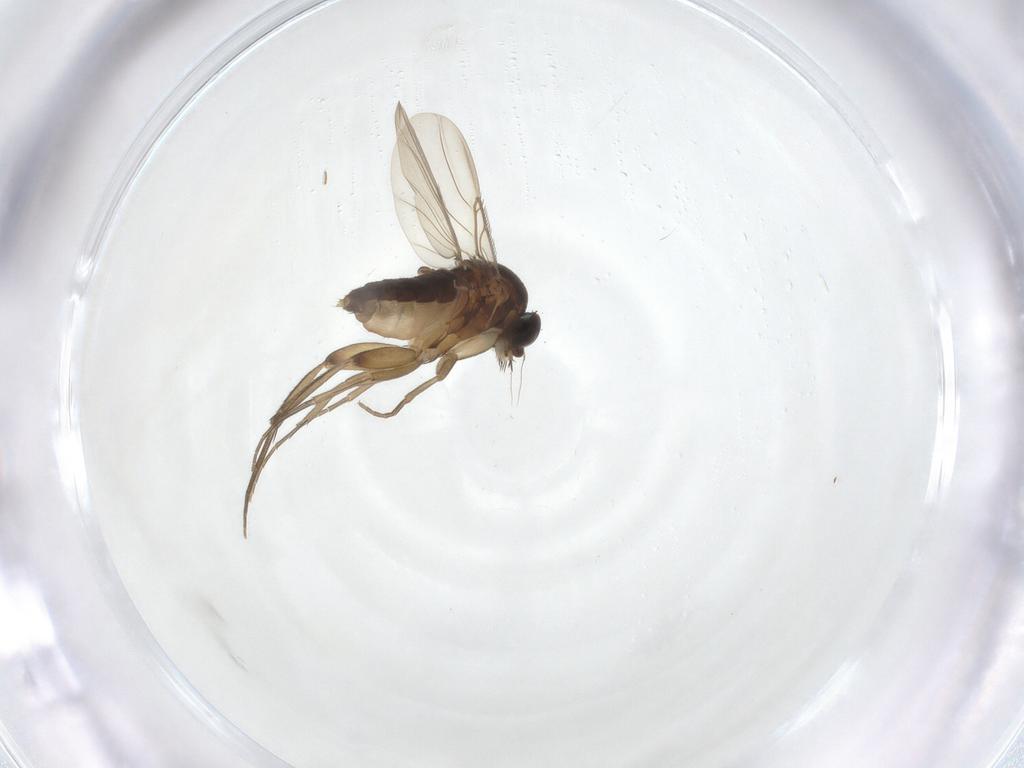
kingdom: Animalia
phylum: Arthropoda
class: Insecta
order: Diptera
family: Phoridae
